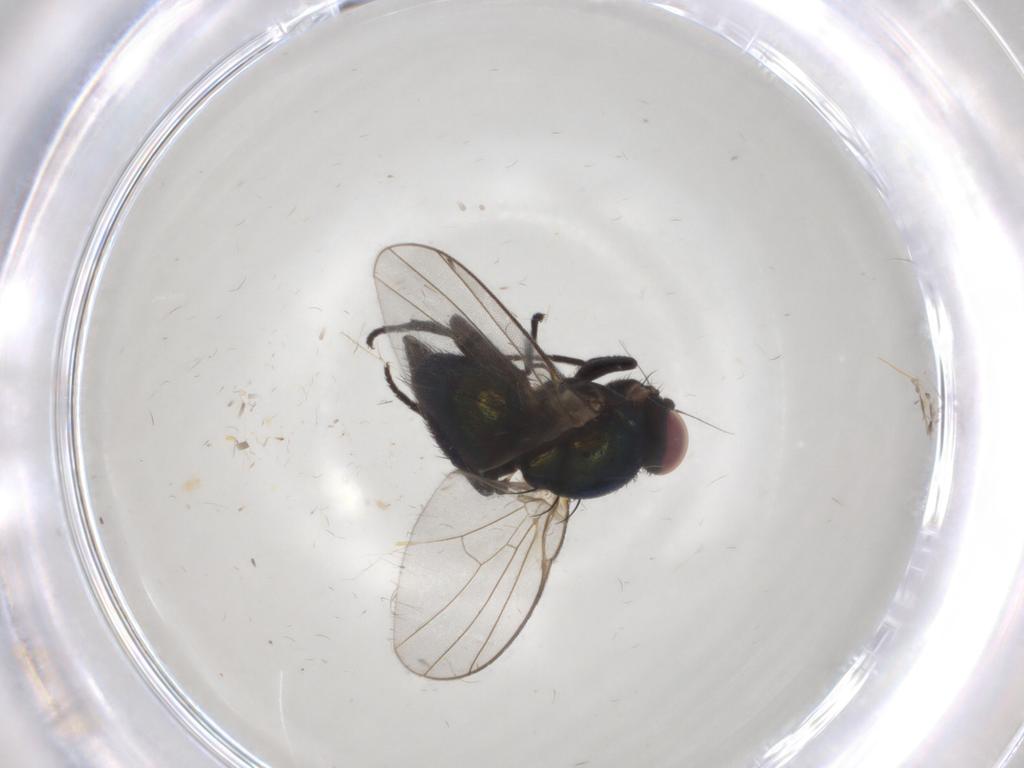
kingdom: Animalia
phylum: Arthropoda
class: Insecta
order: Diptera
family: Agromyzidae
